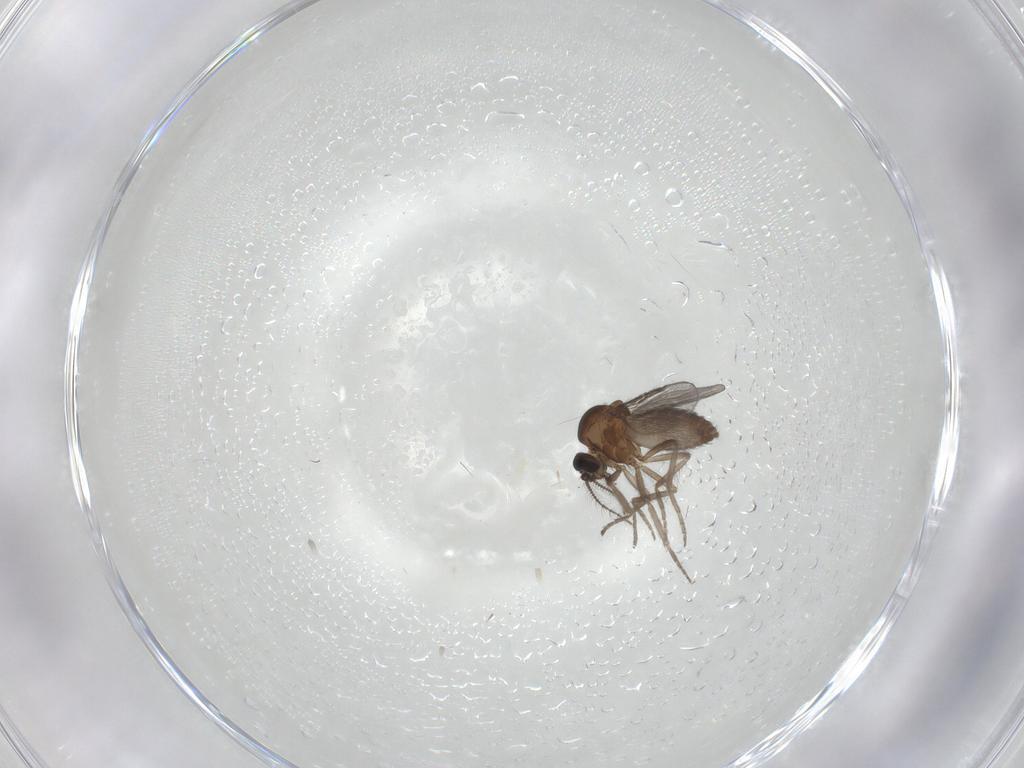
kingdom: Animalia
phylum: Arthropoda
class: Insecta
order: Diptera
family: Ceratopogonidae
